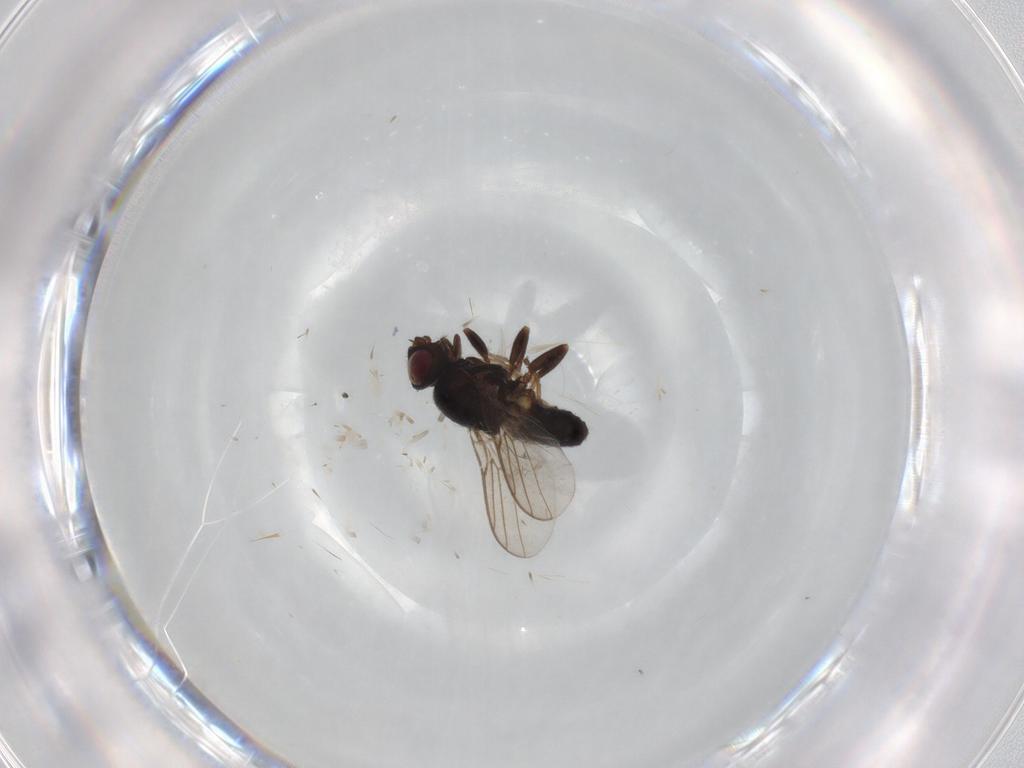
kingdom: Animalia
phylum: Arthropoda
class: Insecta
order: Diptera
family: Chloropidae
